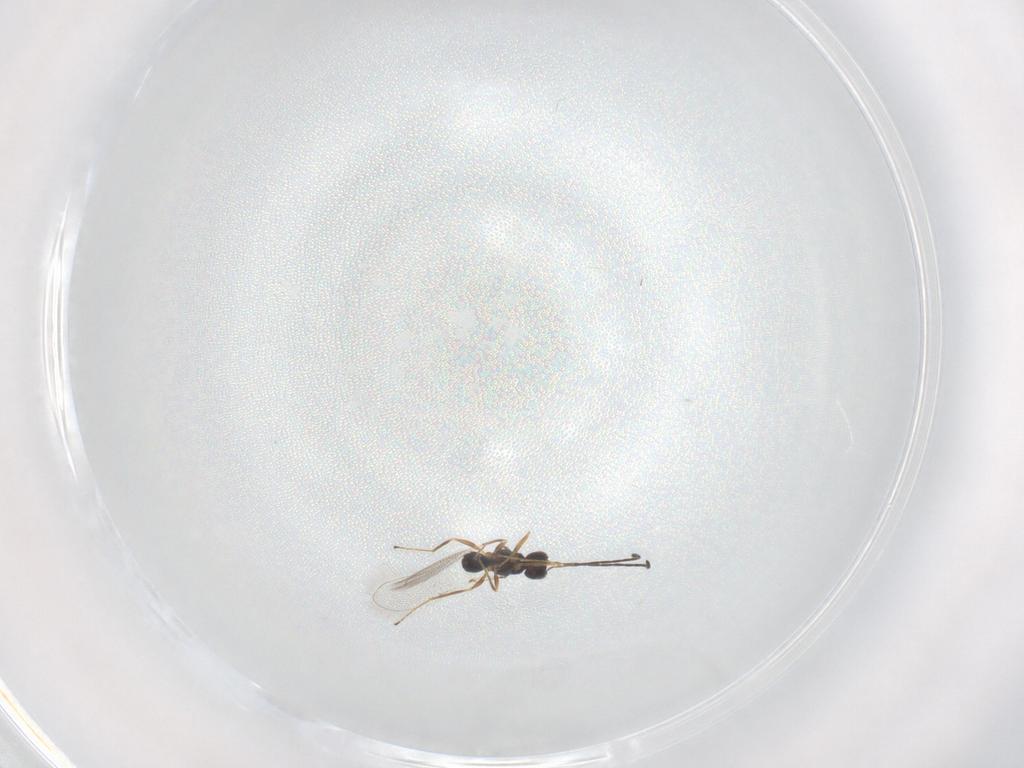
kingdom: Animalia
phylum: Arthropoda
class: Insecta
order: Hymenoptera
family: Mymaridae
